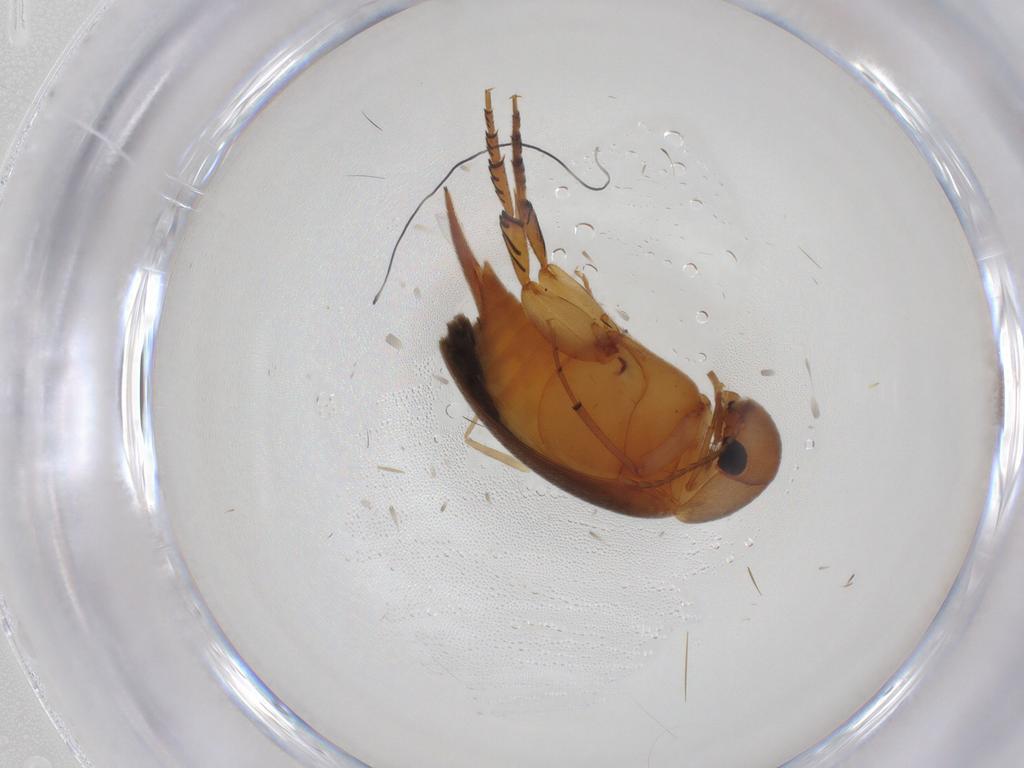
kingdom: Animalia
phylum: Arthropoda
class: Insecta
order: Coleoptera
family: Mordellidae
